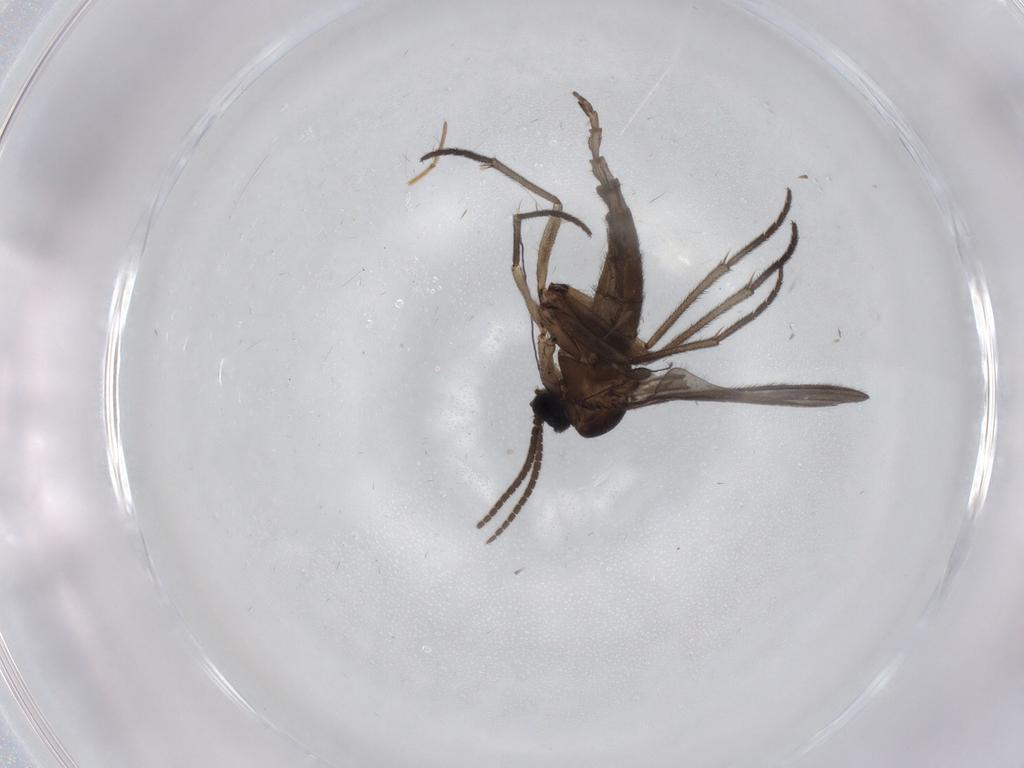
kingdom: Animalia
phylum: Arthropoda
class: Insecta
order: Diptera
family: Sciaridae
